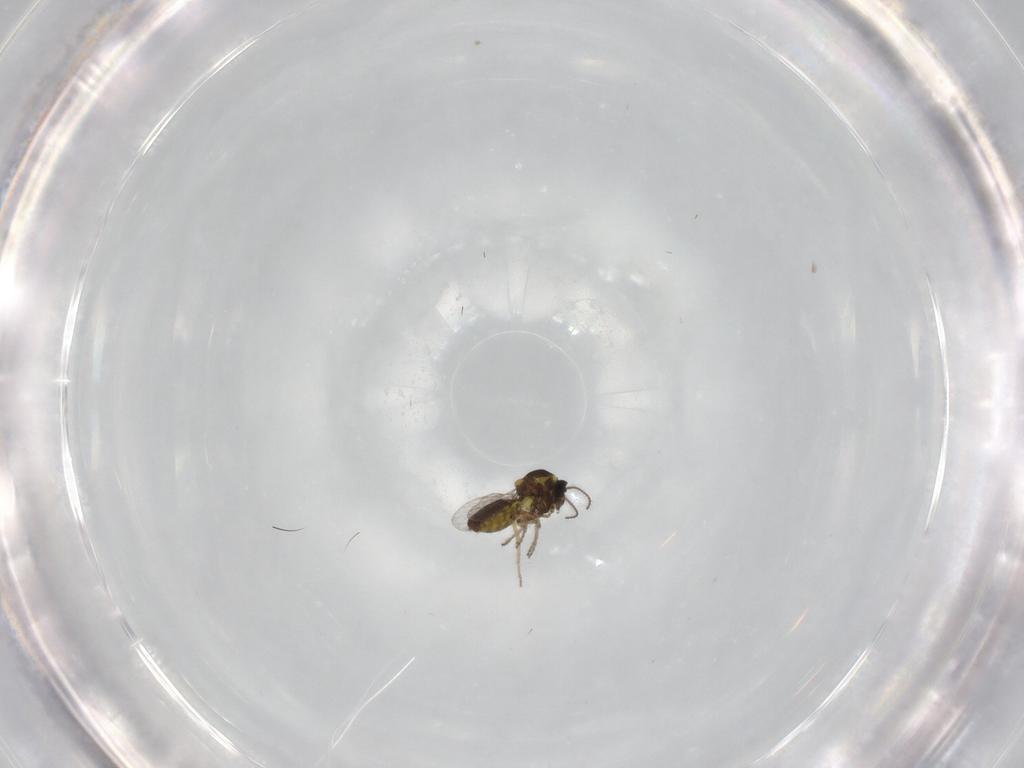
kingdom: Animalia
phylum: Arthropoda
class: Insecta
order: Diptera
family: Ceratopogonidae
